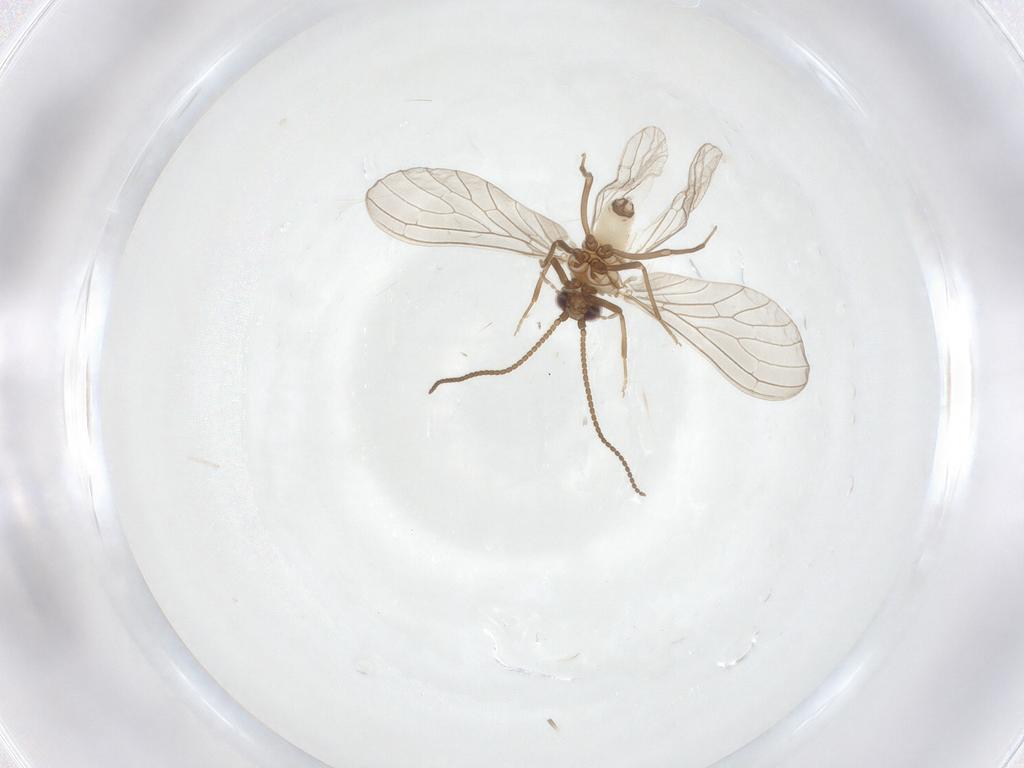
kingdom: Animalia
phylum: Arthropoda
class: Insecta
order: Neuroptera
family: Coniopterygidae
